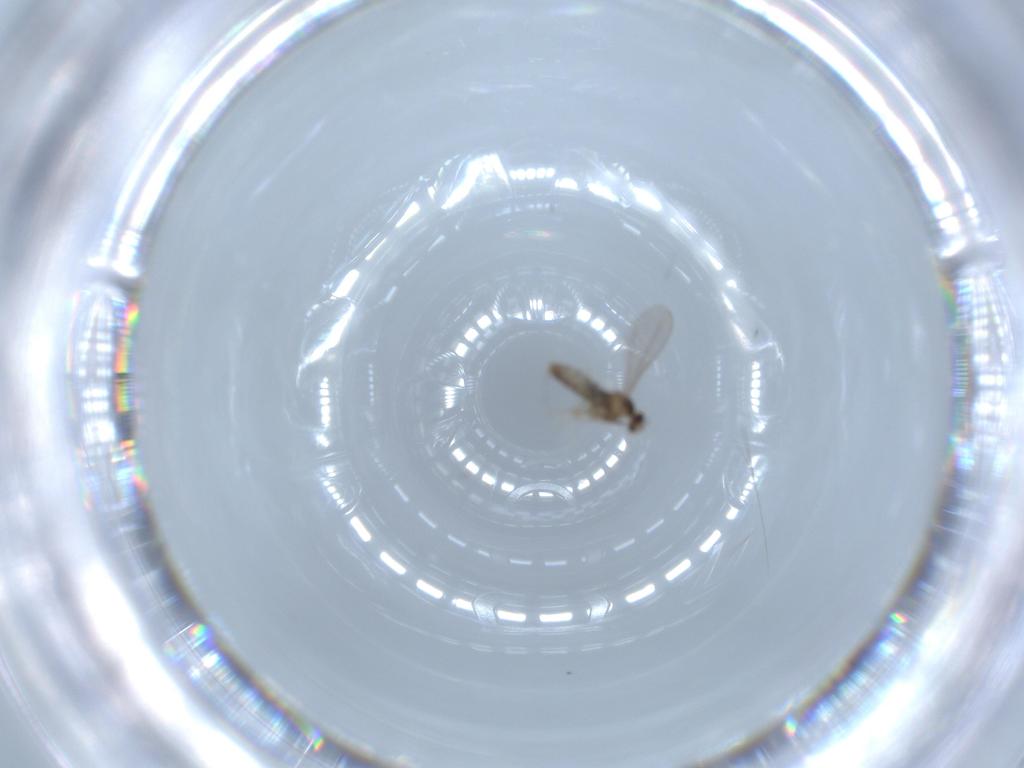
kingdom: Animalia
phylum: Arthropoda
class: Insecta
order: Diptera
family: Cecidomyiidae
